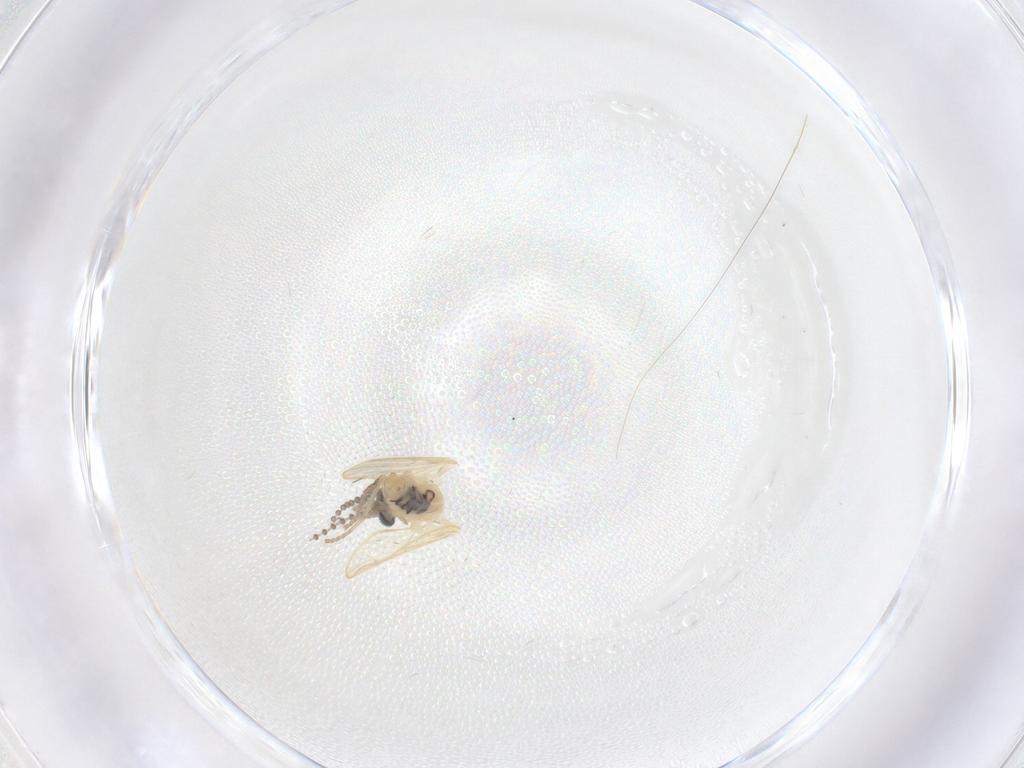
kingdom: Animalia
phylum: Arthropoda
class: Insecta
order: Diptera
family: Psychodidae
